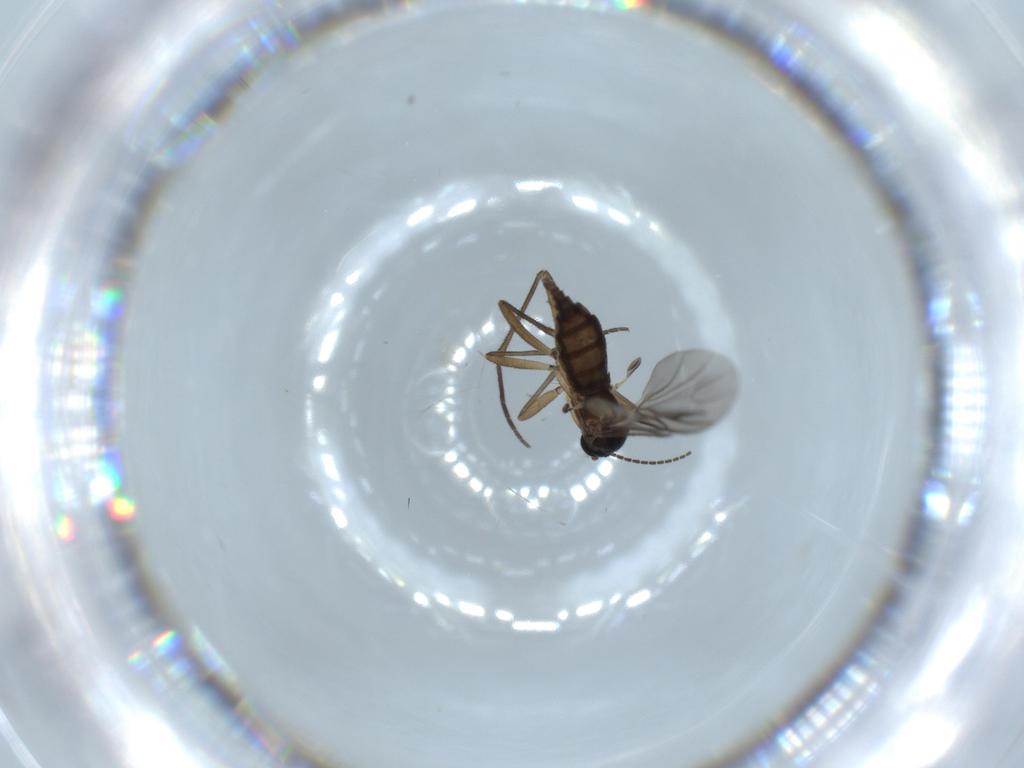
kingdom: Animalia
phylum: Arthropoda
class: Insecta
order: Diptera
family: Sciaridae
